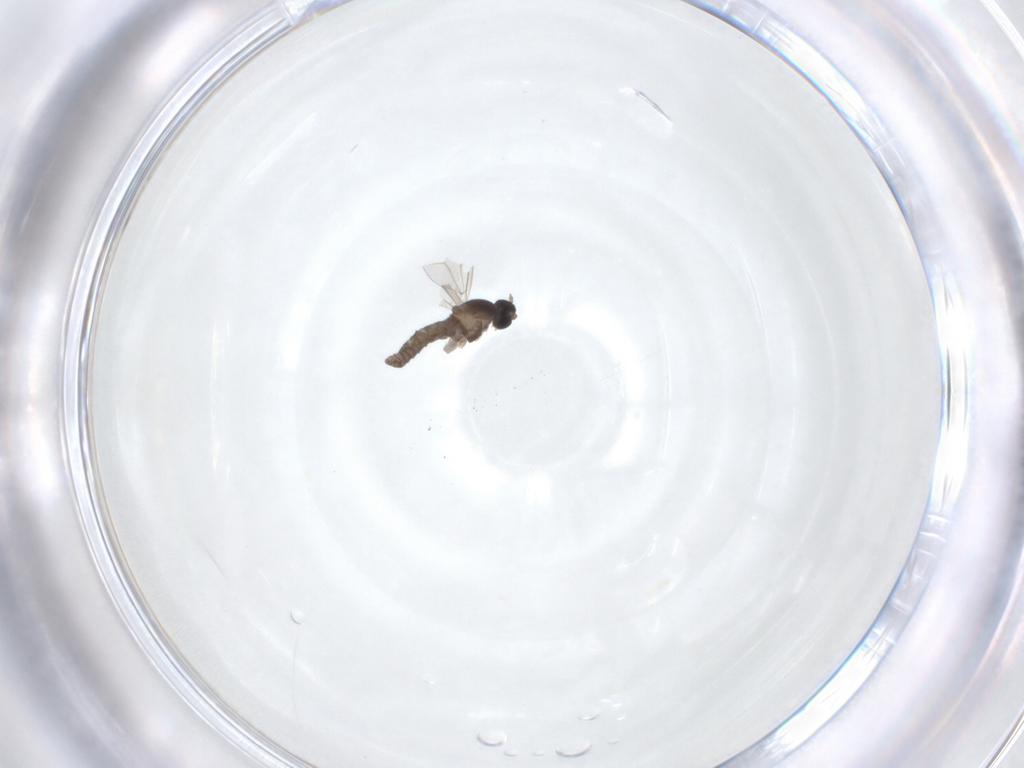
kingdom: Animalia
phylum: Arthropoda
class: Insecta
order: Diptera
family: Cecidomyiidae
